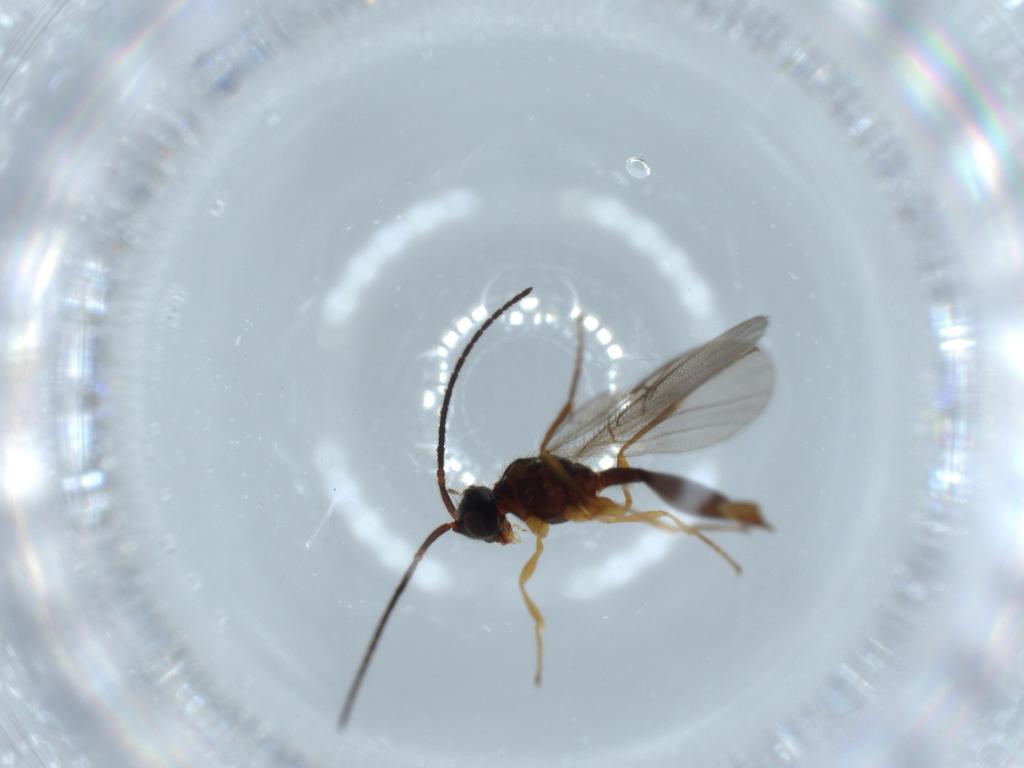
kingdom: Animalia
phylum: Arthropoda
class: Insecta
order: Hymenoptera
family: Diapriidae
